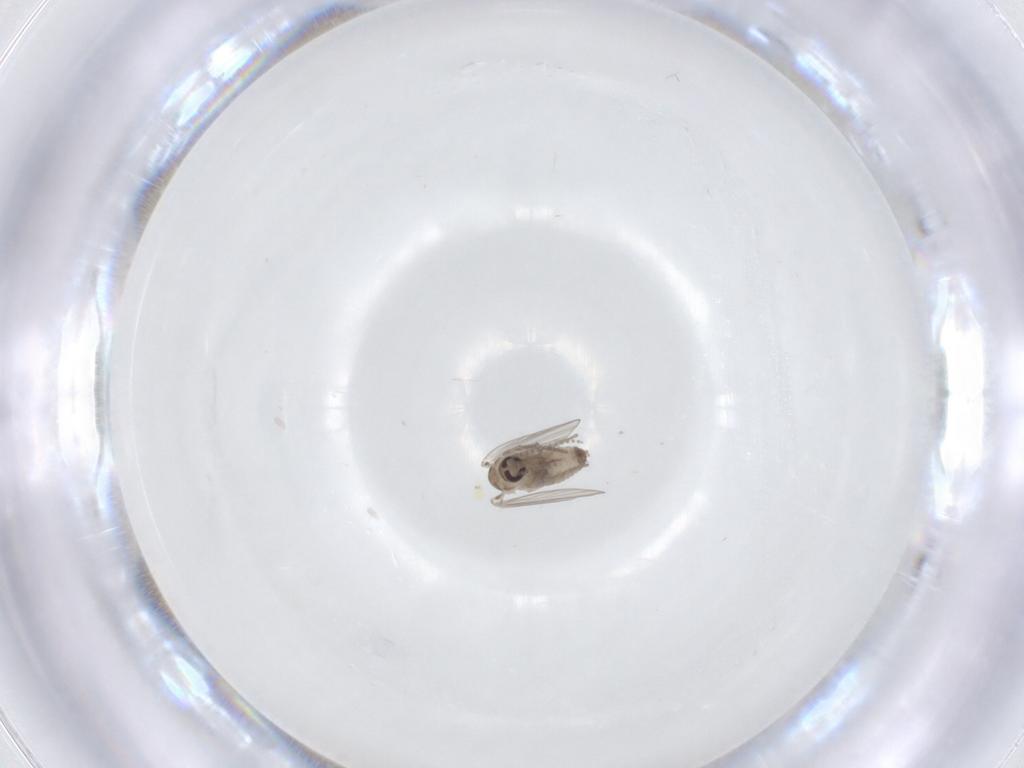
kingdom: Animalia
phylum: Arthropoda
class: Insecta
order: Diptera
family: Psychodidae
